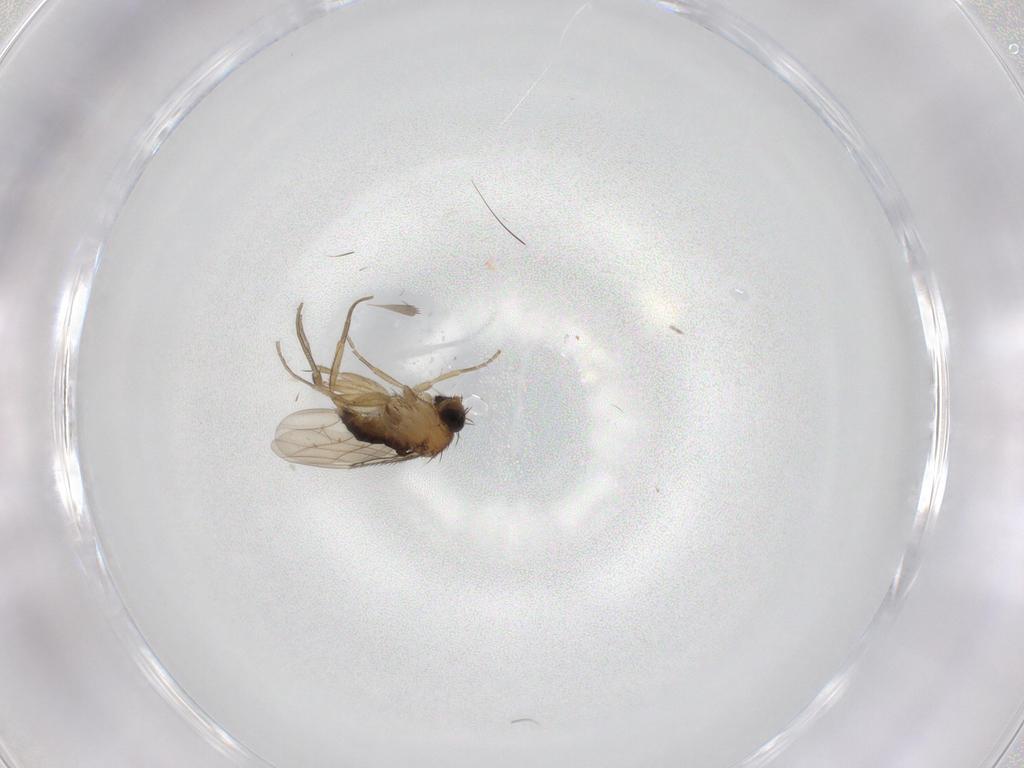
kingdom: Animalia
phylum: Arthropoda
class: Insecta
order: Diptera
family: Phoridae
